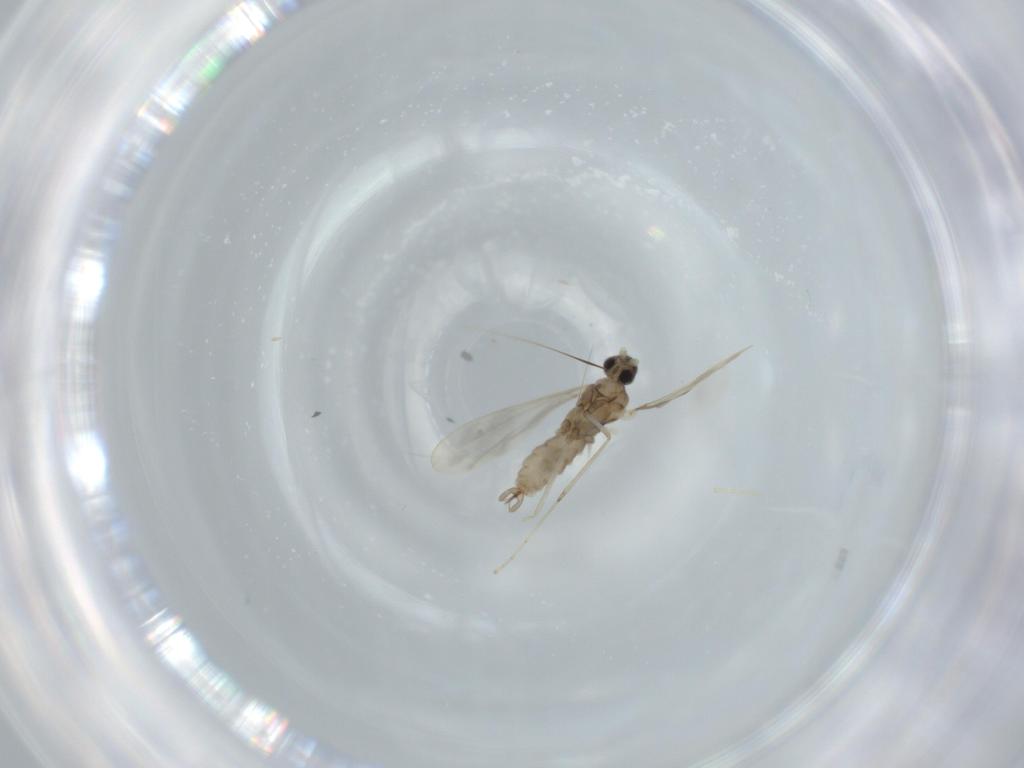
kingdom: Animalia
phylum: Arthropoda
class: Insecta
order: Diptera
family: Cecidomyiidae
